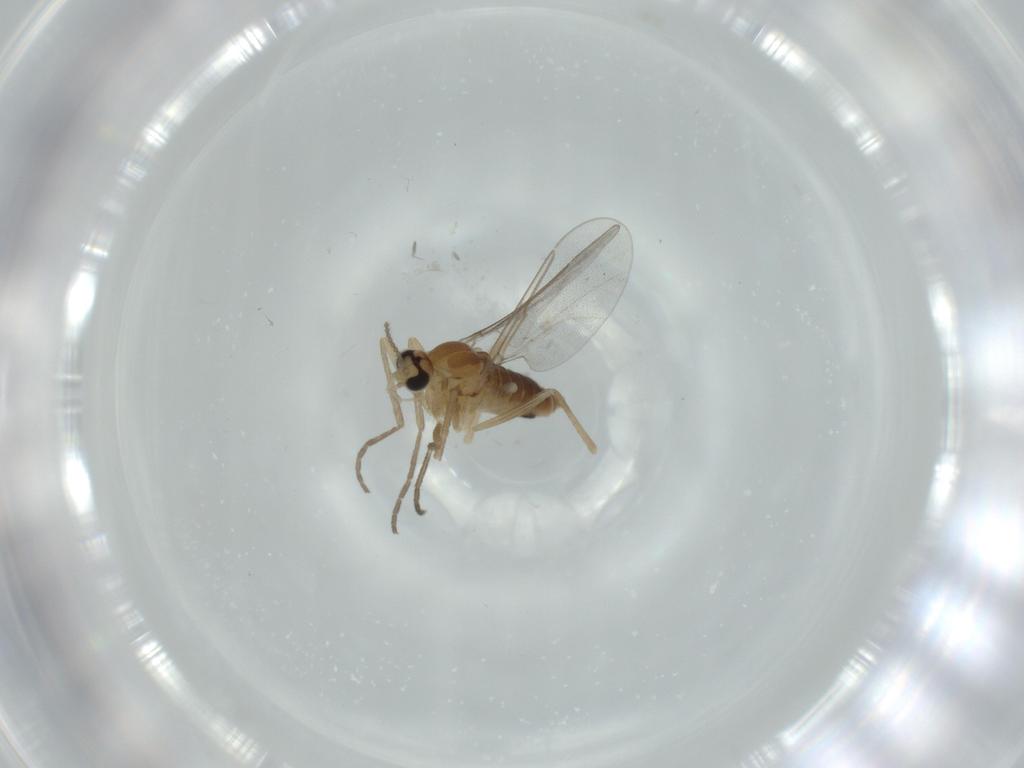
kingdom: Animalia
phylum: Arthropoda
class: Insecta
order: Diptera
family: Cecidomyiidae
